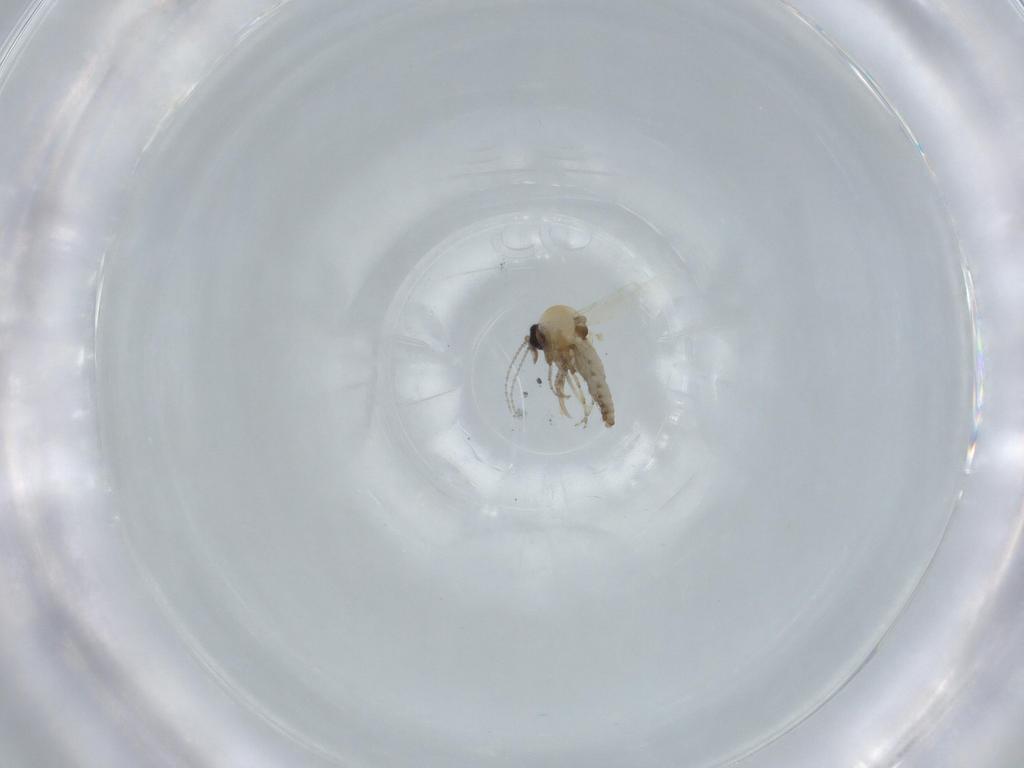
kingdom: Animalia
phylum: Arthropoda
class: Insecta
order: Diptera
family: Cecidomyiidae
